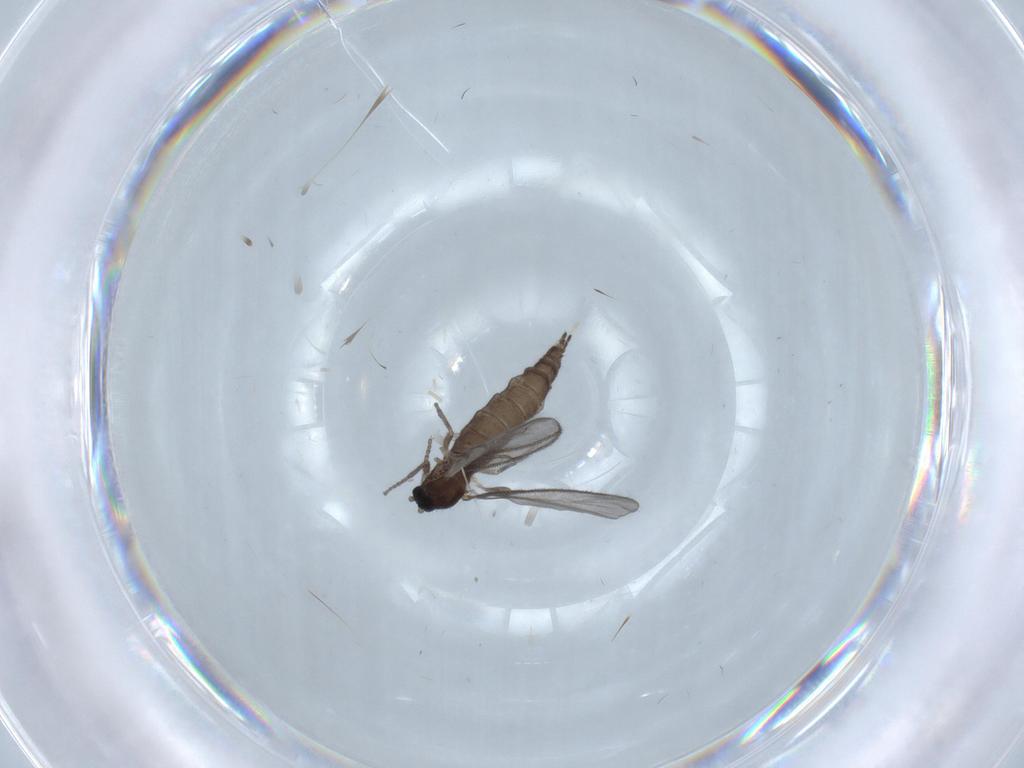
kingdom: Animalia
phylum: Arthropoda
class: Insecta
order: Diptera
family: Sciaridae
